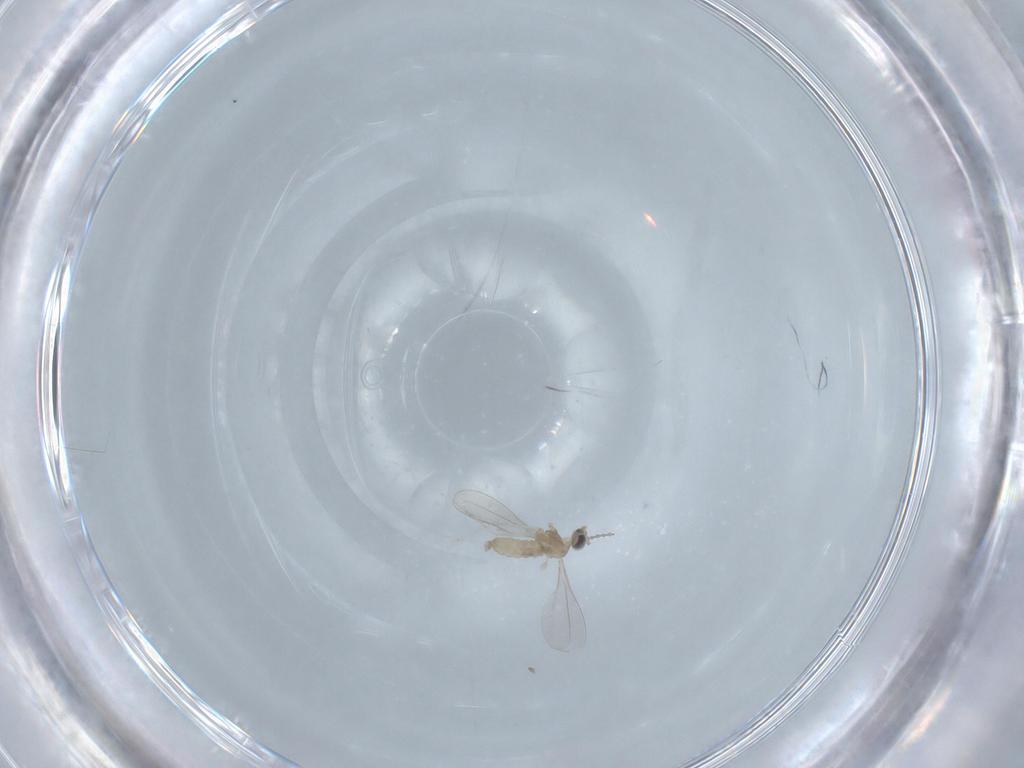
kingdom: Animalia
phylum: Arthropoda
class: Insecta
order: Diptera
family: Cecidomyiidae
